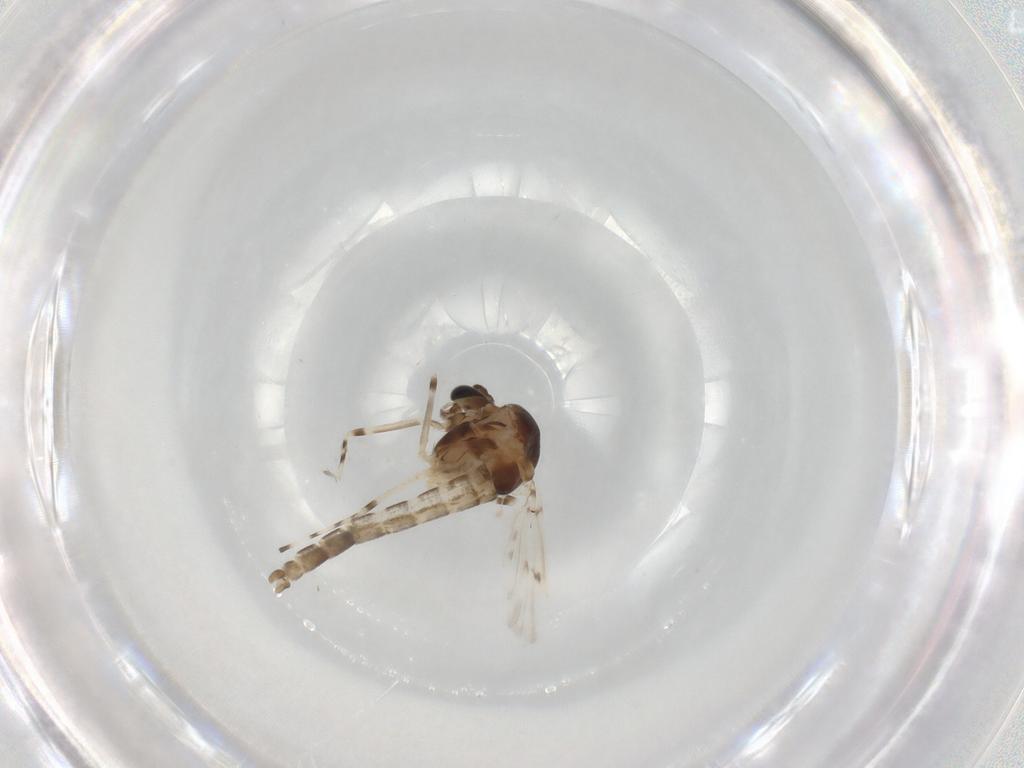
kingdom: Animalia
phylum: Arthropoda
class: Insecta
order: Diptera
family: Chironomidae
